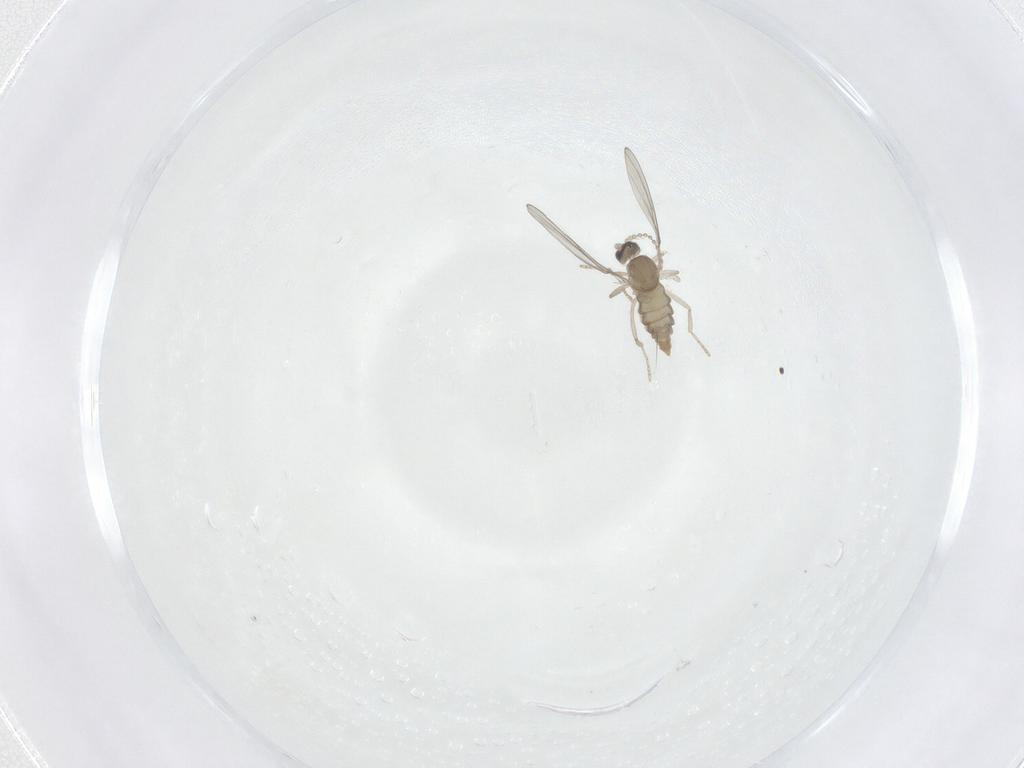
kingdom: Animalia
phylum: Arthropoda
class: Insecta
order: Diptera
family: Cecidomyiidae
